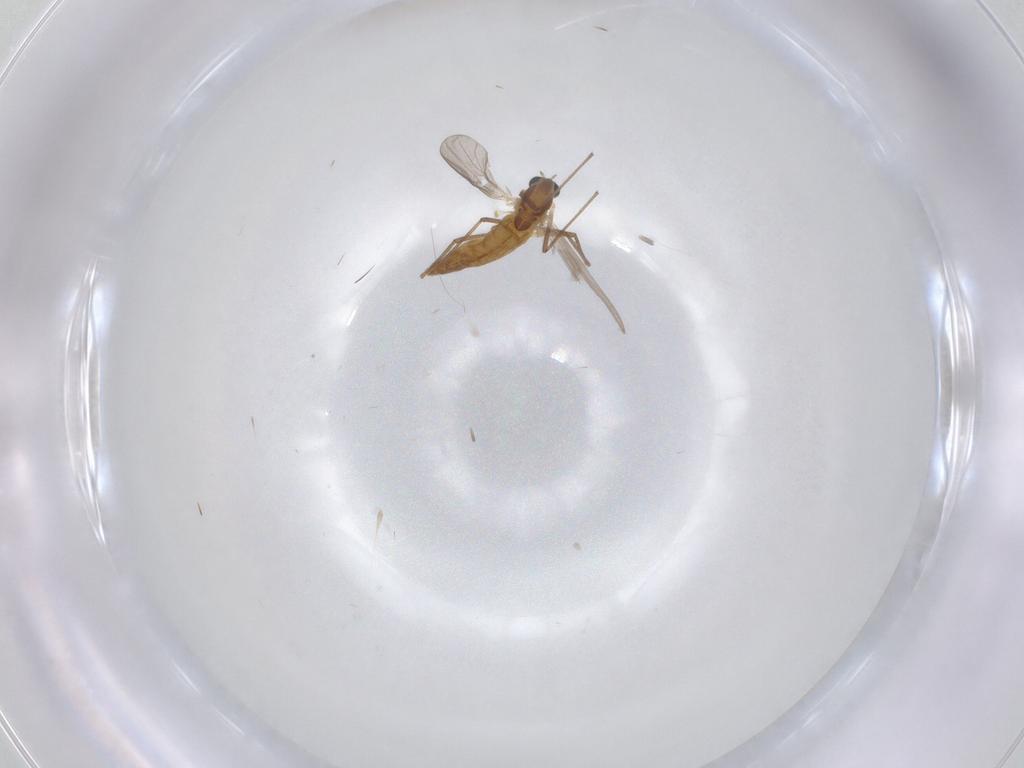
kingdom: Animalia
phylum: Arthropoda
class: Insecta
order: Diptera
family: Chironomidae
